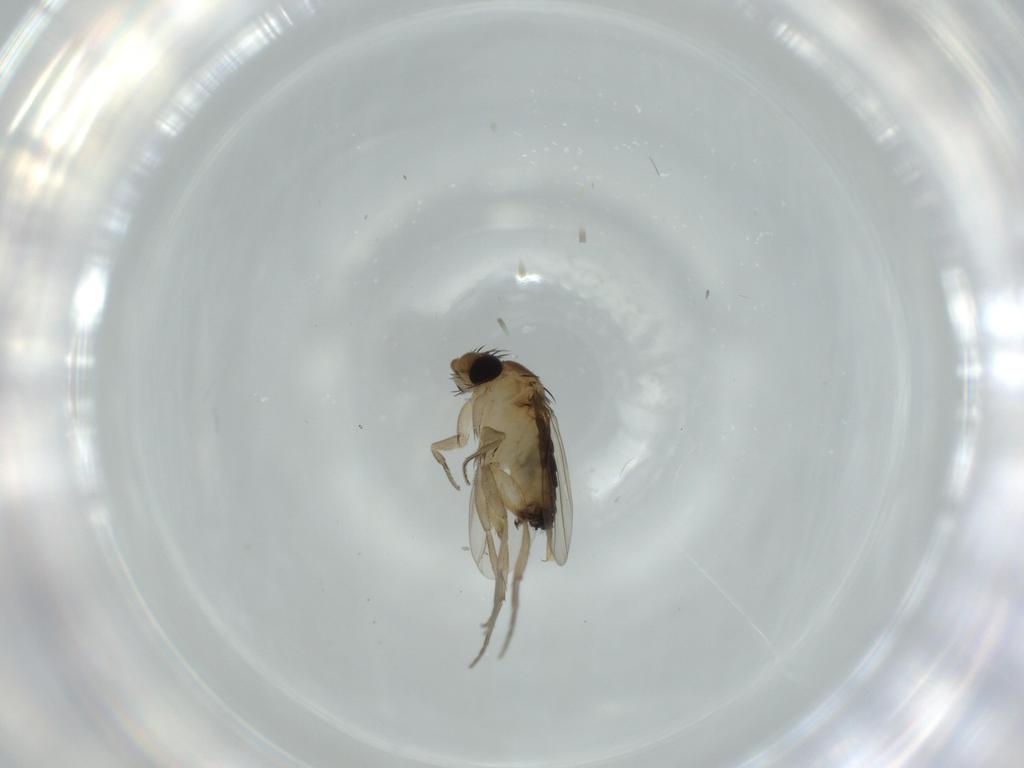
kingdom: Animalia
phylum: Arthropoda
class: Insecta
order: Diptera
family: Phoridae
